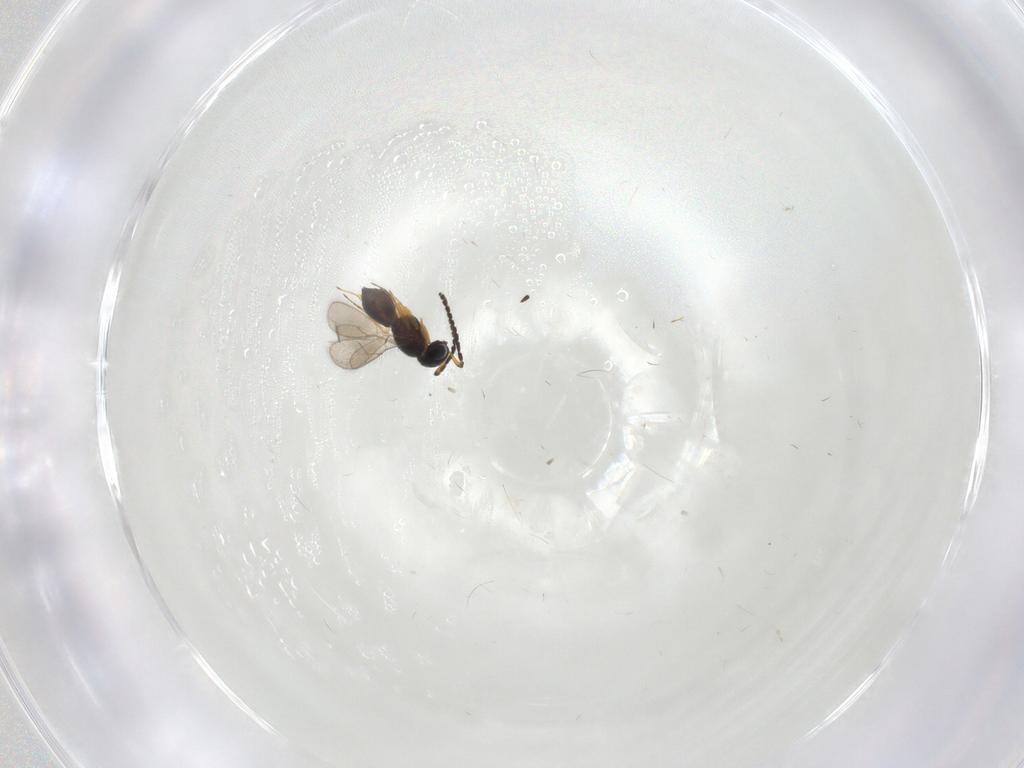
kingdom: Animalia
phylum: Arthropoda
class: Insecta
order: Hymenoptera
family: Scelionidae
